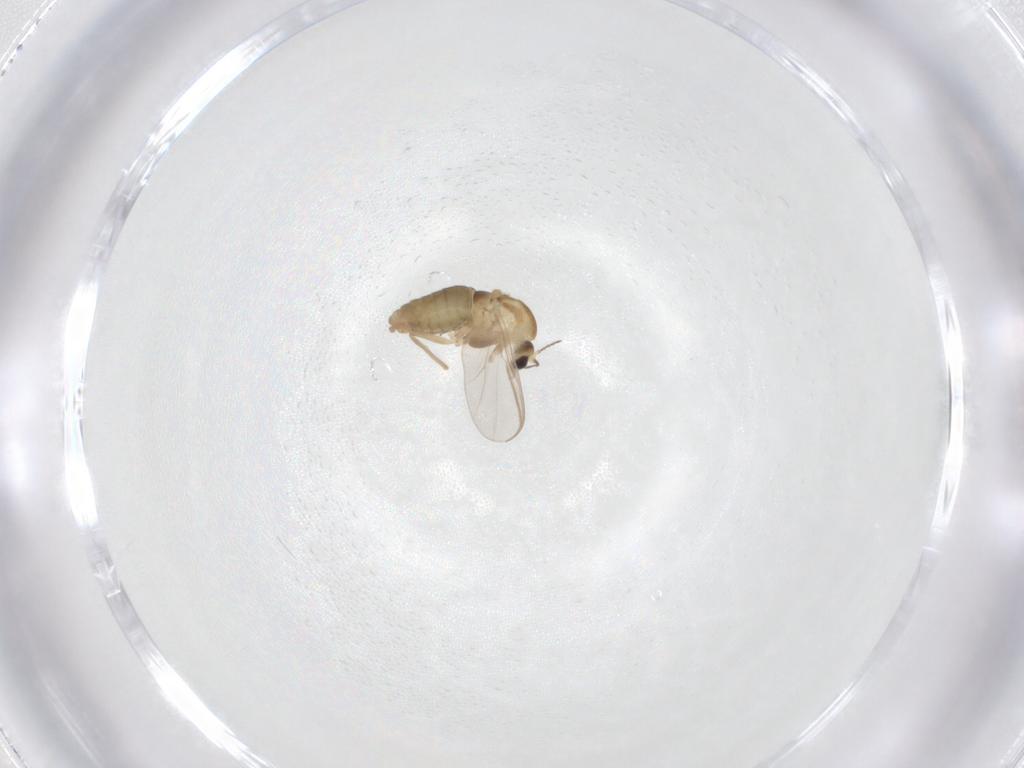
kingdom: Animalia
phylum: Arthropoda
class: Insecta
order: Diptera
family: Chironomidae
